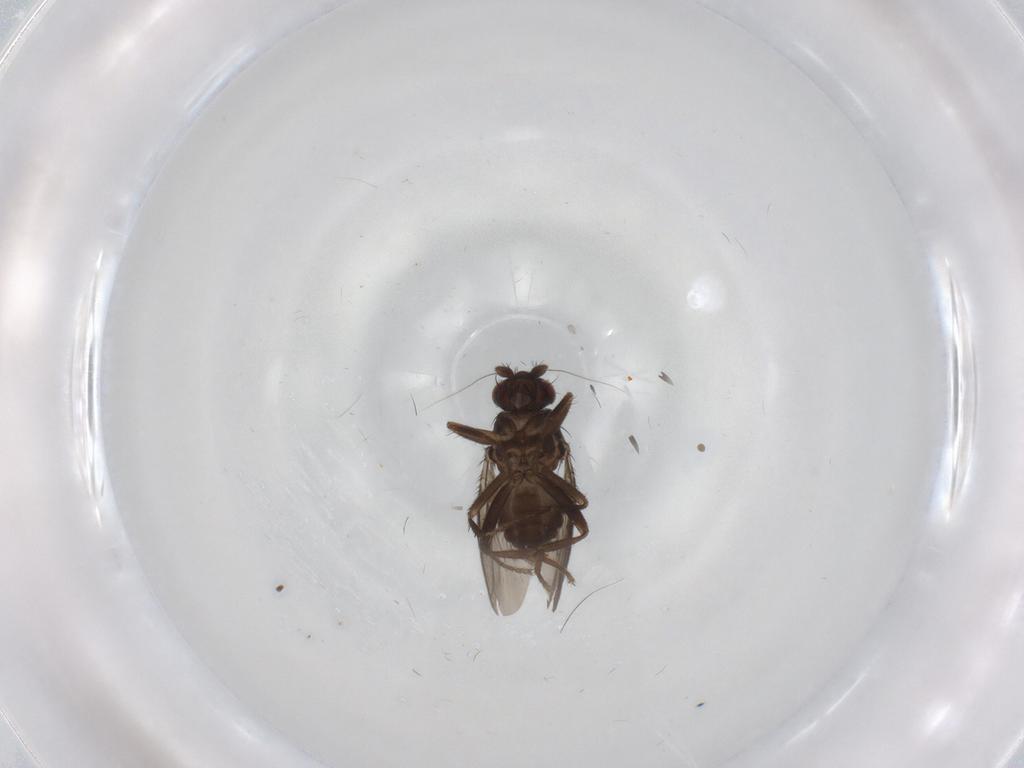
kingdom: Animalia
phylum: Arthropoda
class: Insecta
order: Diptera
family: Sphaeroceridae
